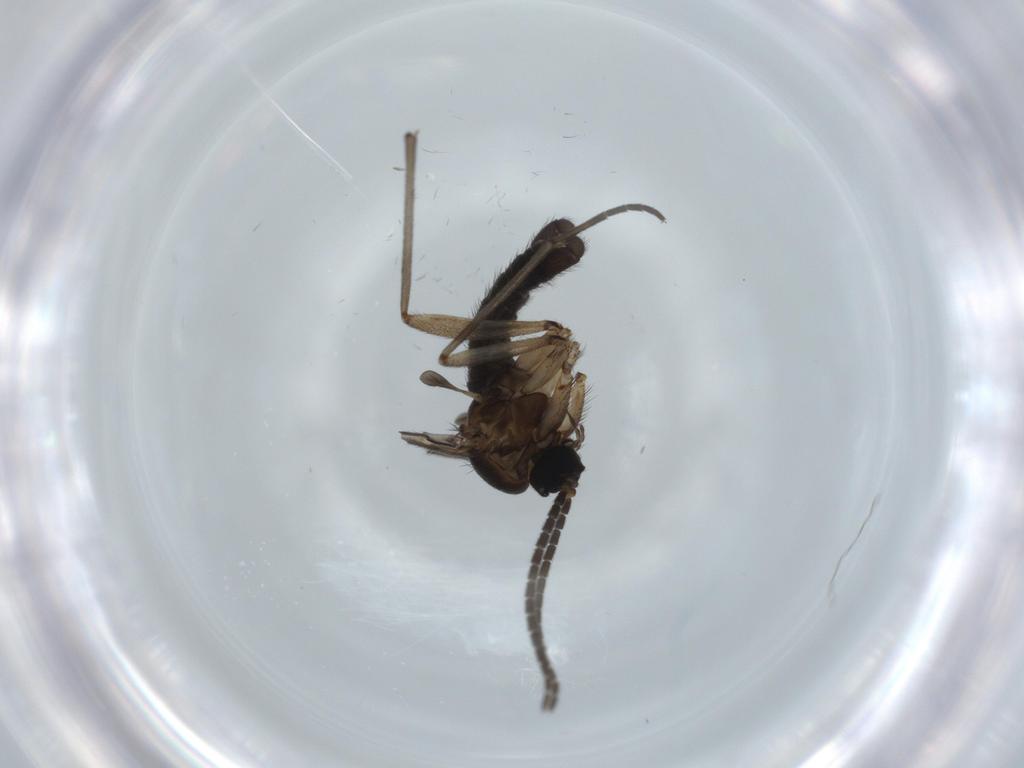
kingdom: Animalia
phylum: Arthropoda
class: Insecta
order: Diptera
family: Sciaridae
